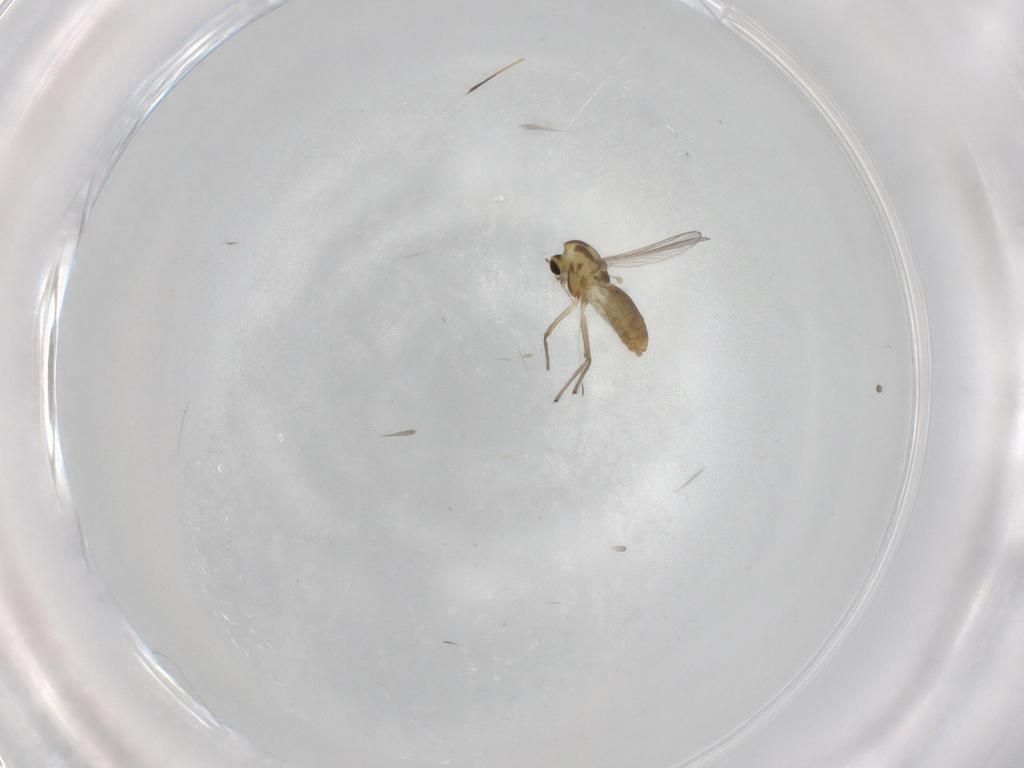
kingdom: Animalia
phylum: Arthropoda
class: Insecta
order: Diptera
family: Chironomidae
